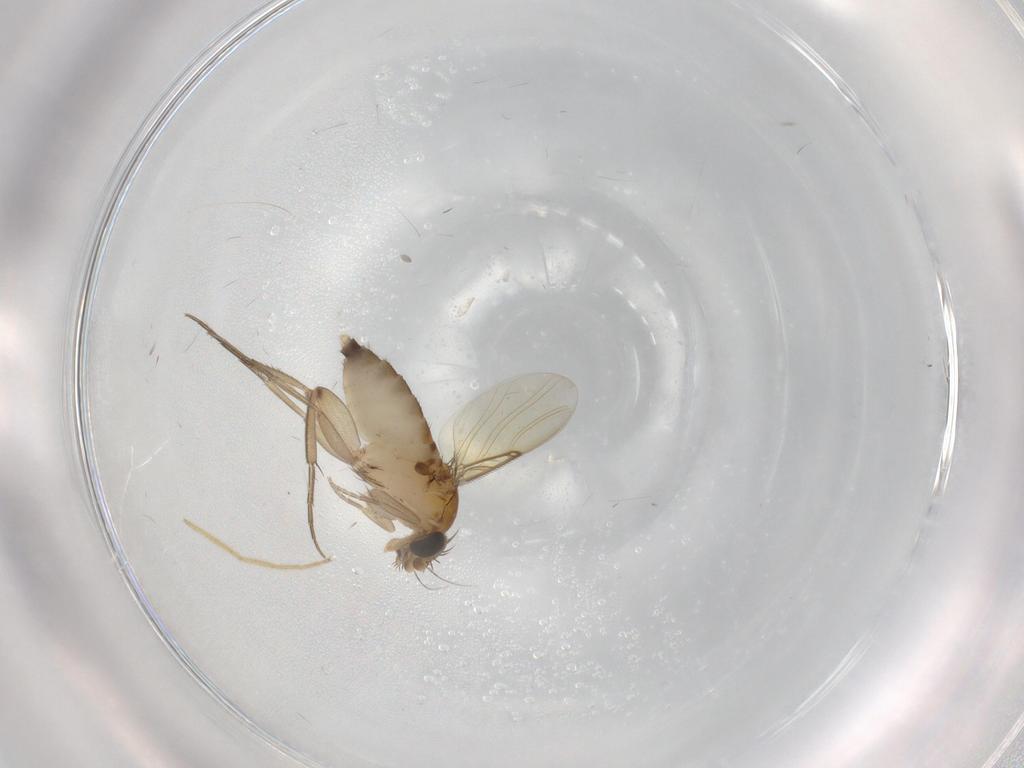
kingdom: Animalia
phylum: Arthropoda
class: Insecta
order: Diptera
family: Phoridae
